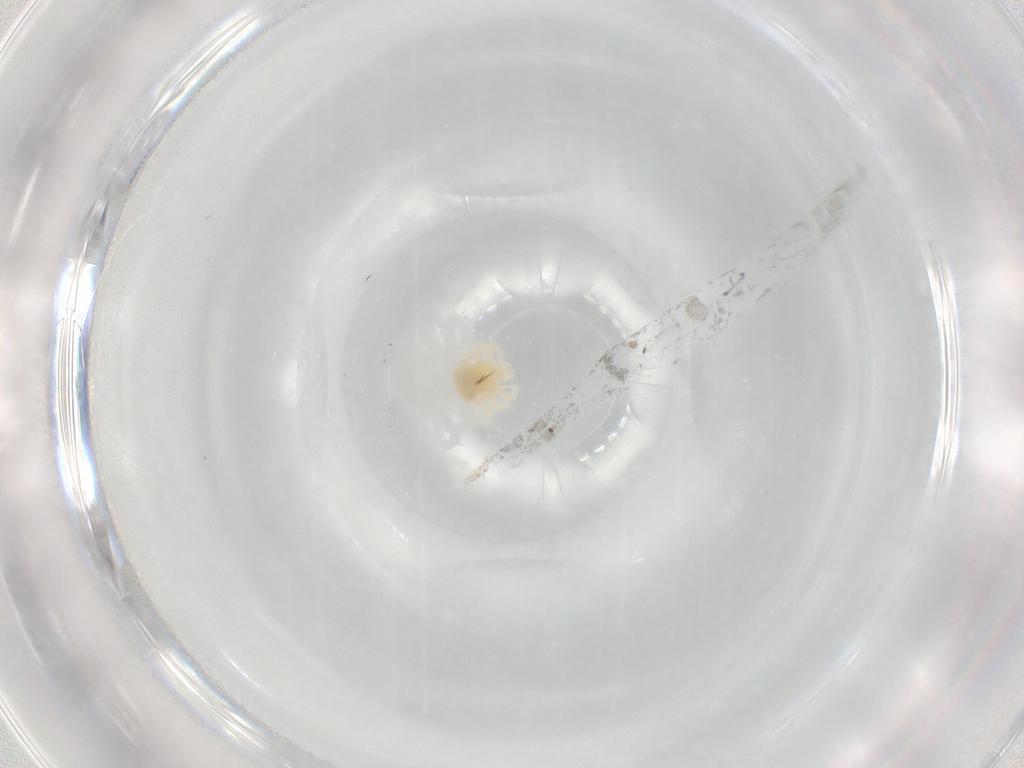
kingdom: Animalia
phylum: Arthropoda
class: Arachnida
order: Trombidiformes
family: Anystidae
